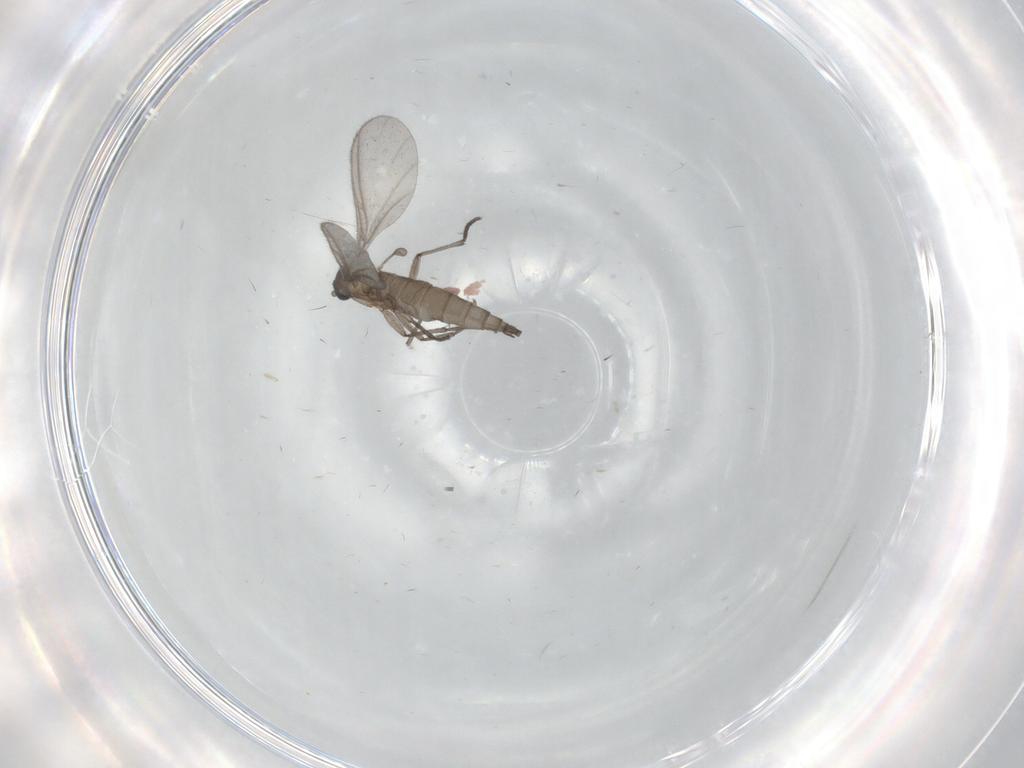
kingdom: Animalia
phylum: Arthropoda
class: Insecta
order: Diptera
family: Sciaridae
